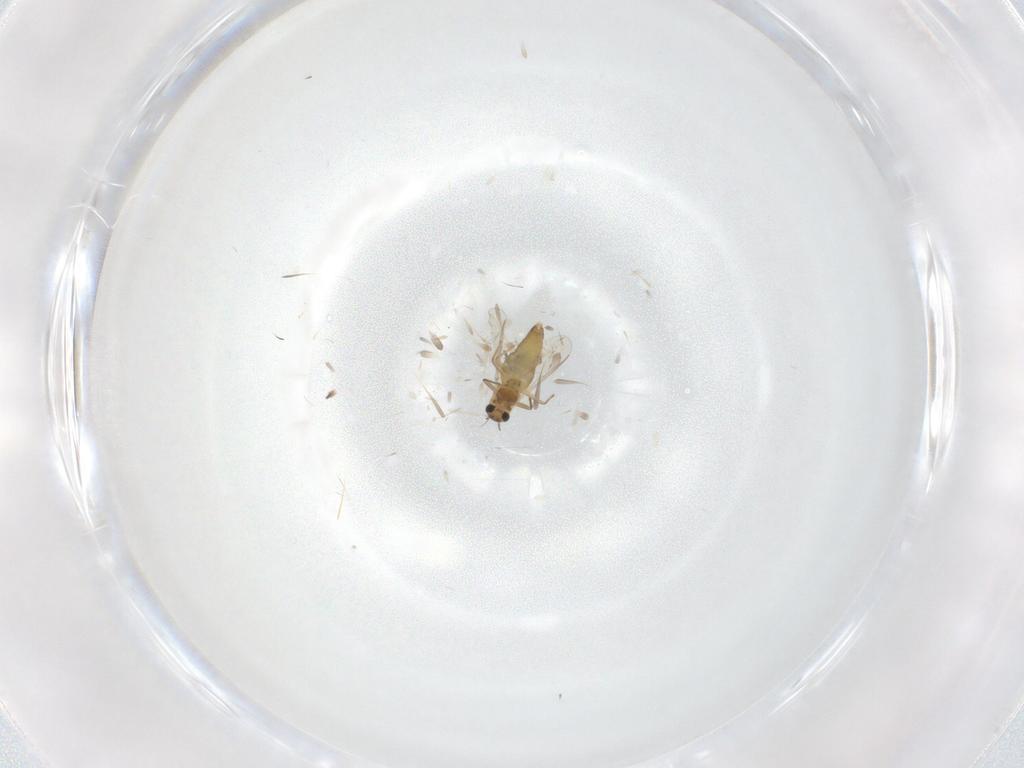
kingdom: Animalia
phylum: Arthropoda
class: Insecta
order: Diptera
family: Chironomidae
